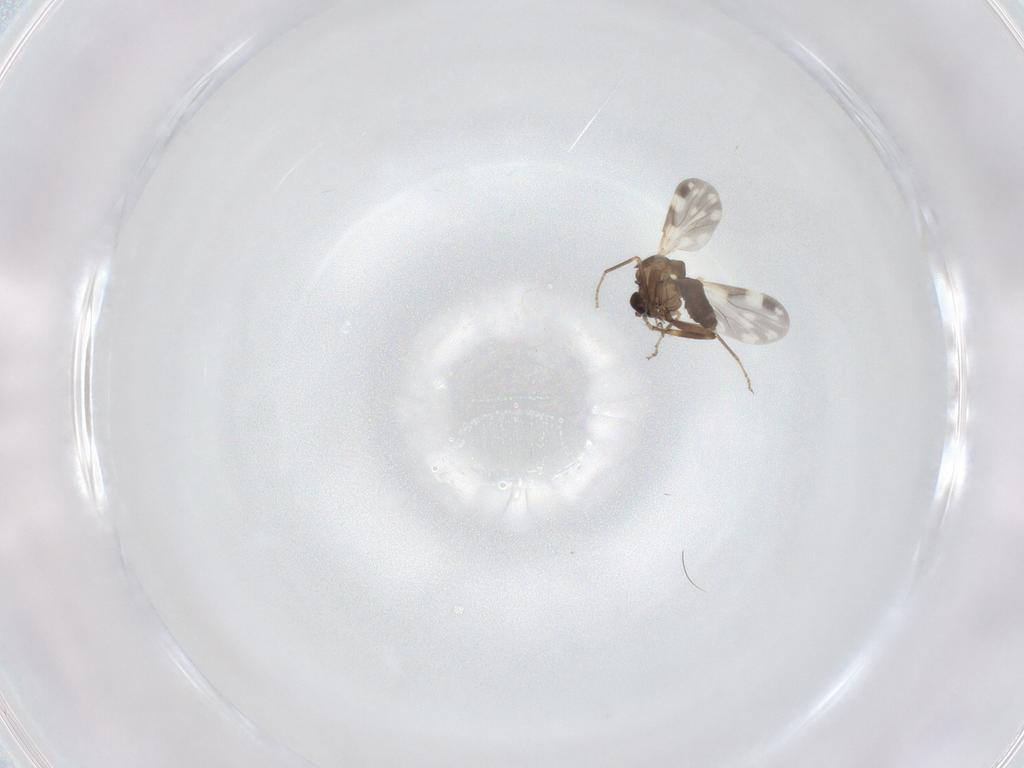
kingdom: Animalia
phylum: Arthropoda
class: Insecta
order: Diptera
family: Ceratopogonidae
